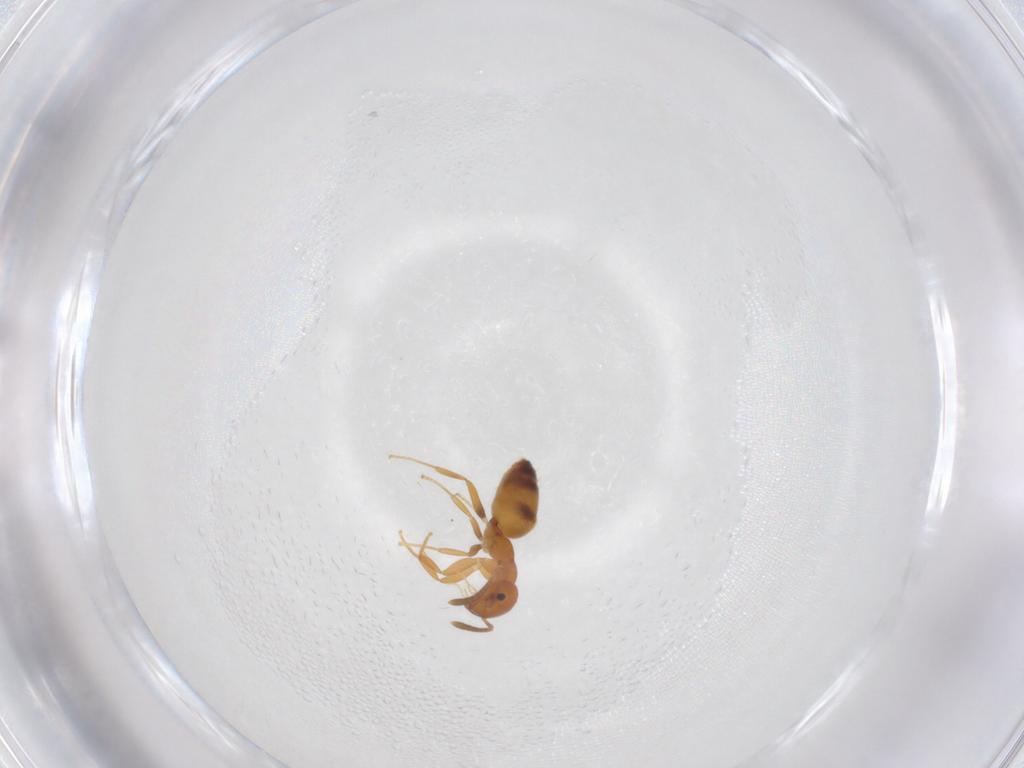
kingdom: Animalia
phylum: Arthropoda
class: Insecta
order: Hymenoptera
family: Formicidae
